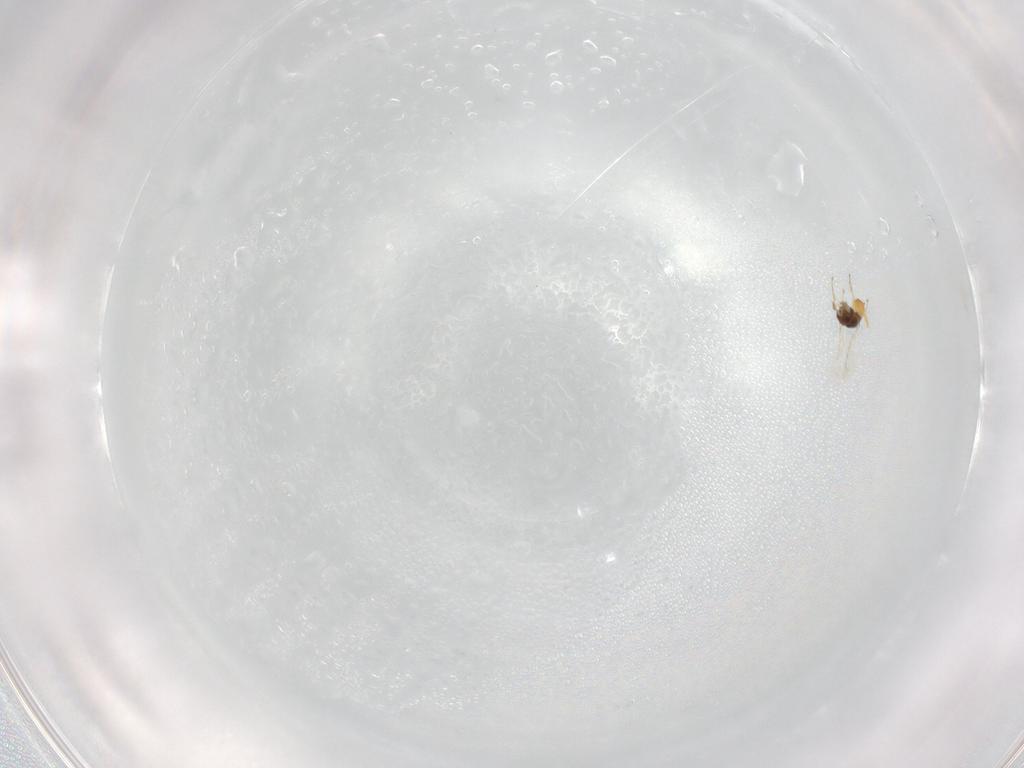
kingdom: Animalia
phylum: Arthropoda
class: Insecta
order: Hymenoptera
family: Eulophidae
